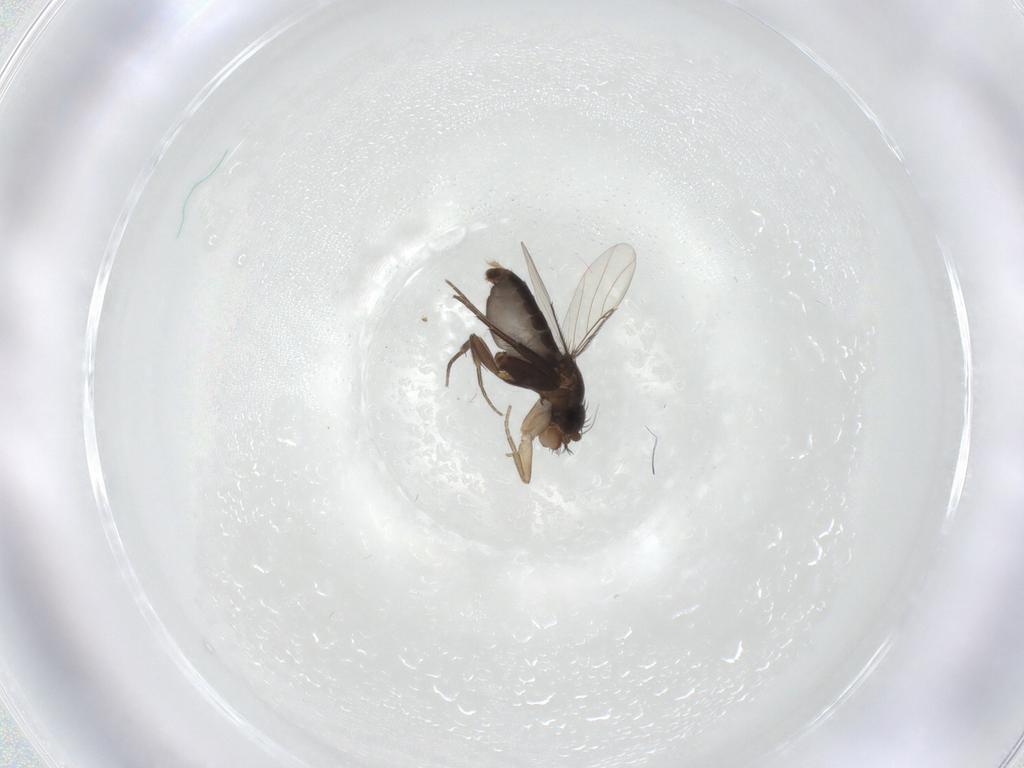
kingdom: Animalia
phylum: Arthropoda
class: Insecta
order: Diptera
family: Phoridae
